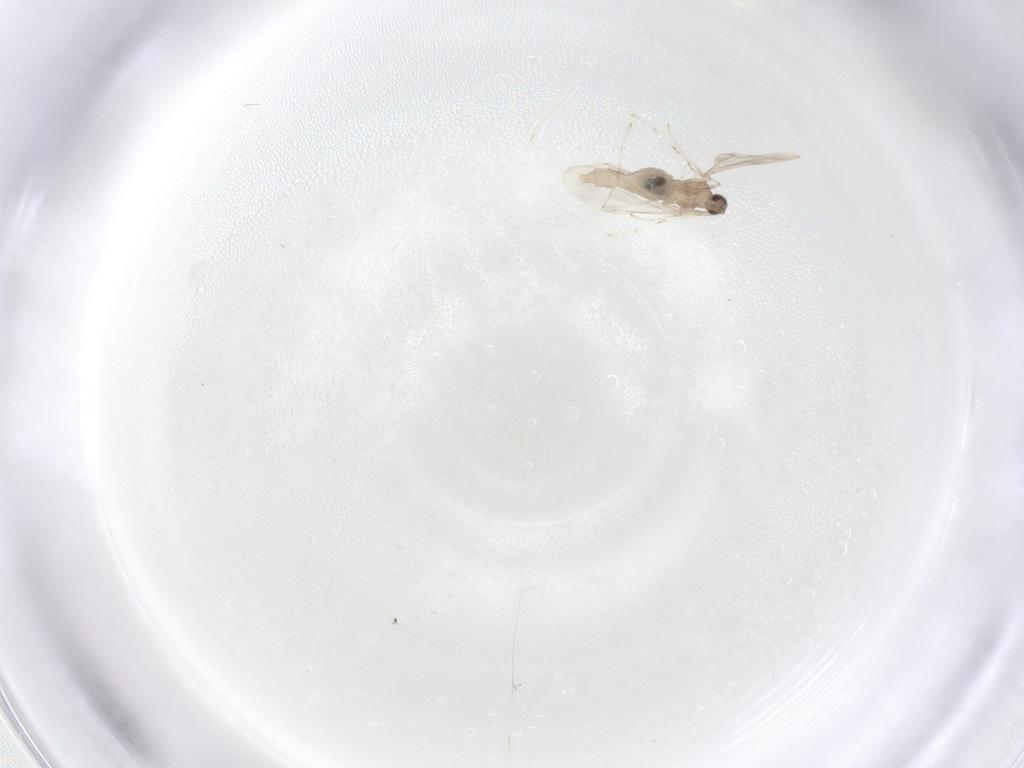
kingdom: Animalia
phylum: Arthropoda
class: Insecta
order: Diptera
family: Cecidomyiidae
